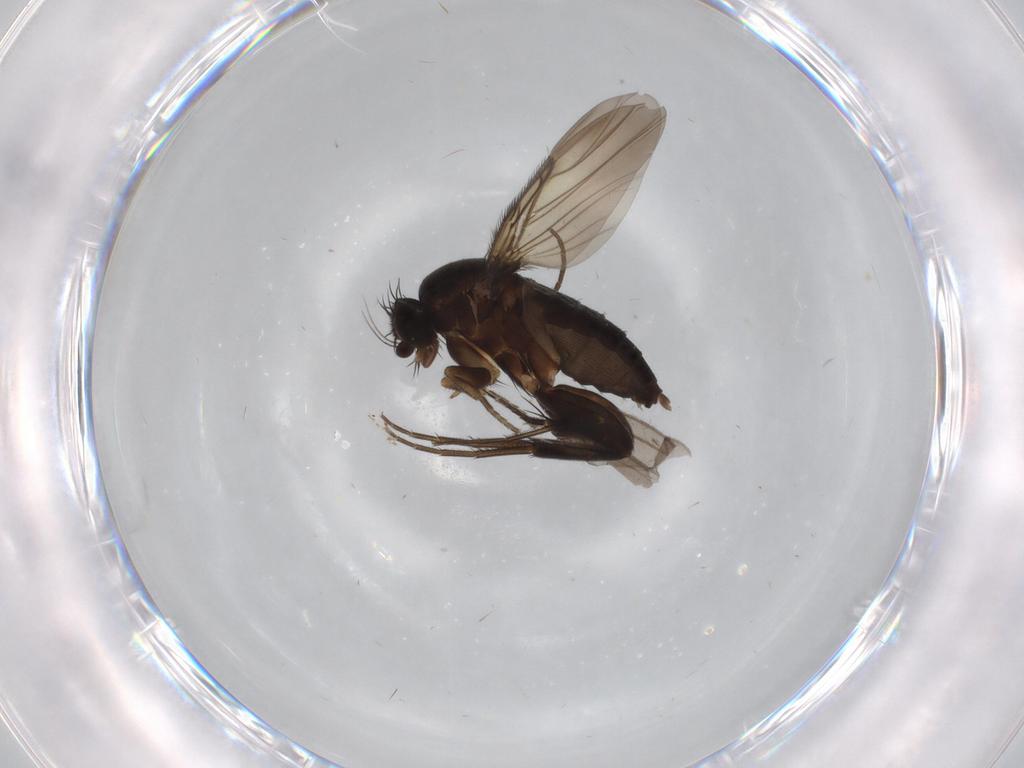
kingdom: Animalia
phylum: Arthropoda
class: Insecta
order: Diptera
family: Phoridae
